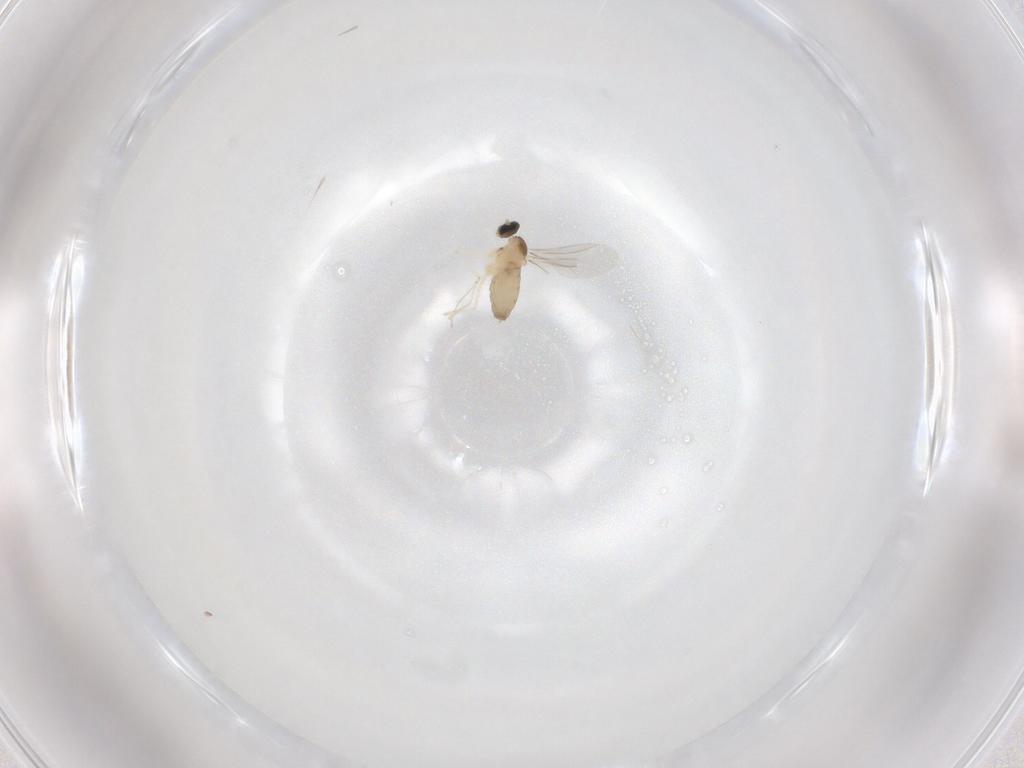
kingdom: Animalia
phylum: Arthropoda
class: Insecta
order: Diptera
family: Cecidomyiidae
